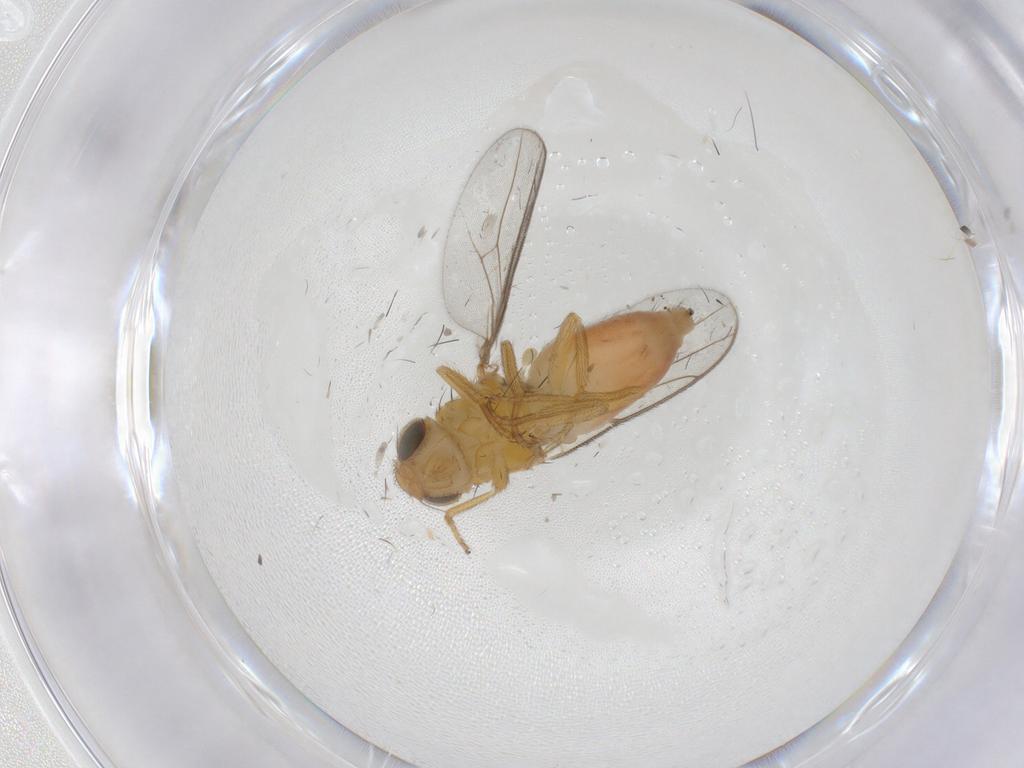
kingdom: Animalia
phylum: Arthropoda
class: Insecta
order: Diptera
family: Chloropidae
